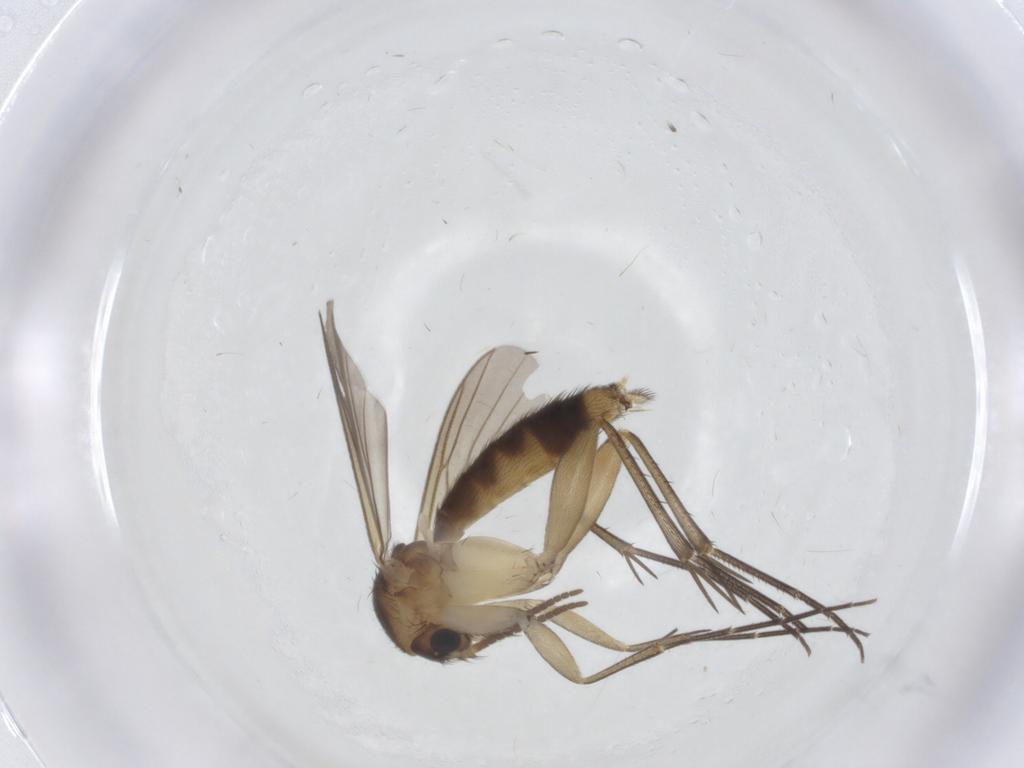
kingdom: Animalia
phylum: Arthropoda
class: Insecta
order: Diptera
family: Mycetophilidae
